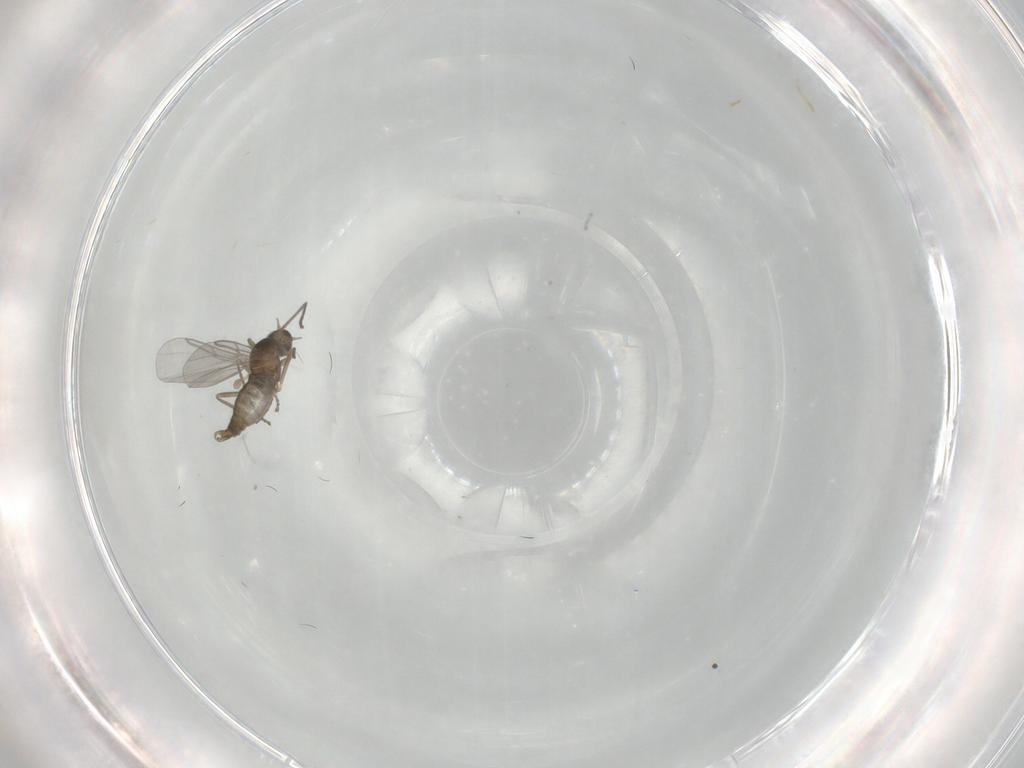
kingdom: Animalia
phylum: Arthropoda
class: Insecta
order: Diptera
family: Cecidomyiidae
